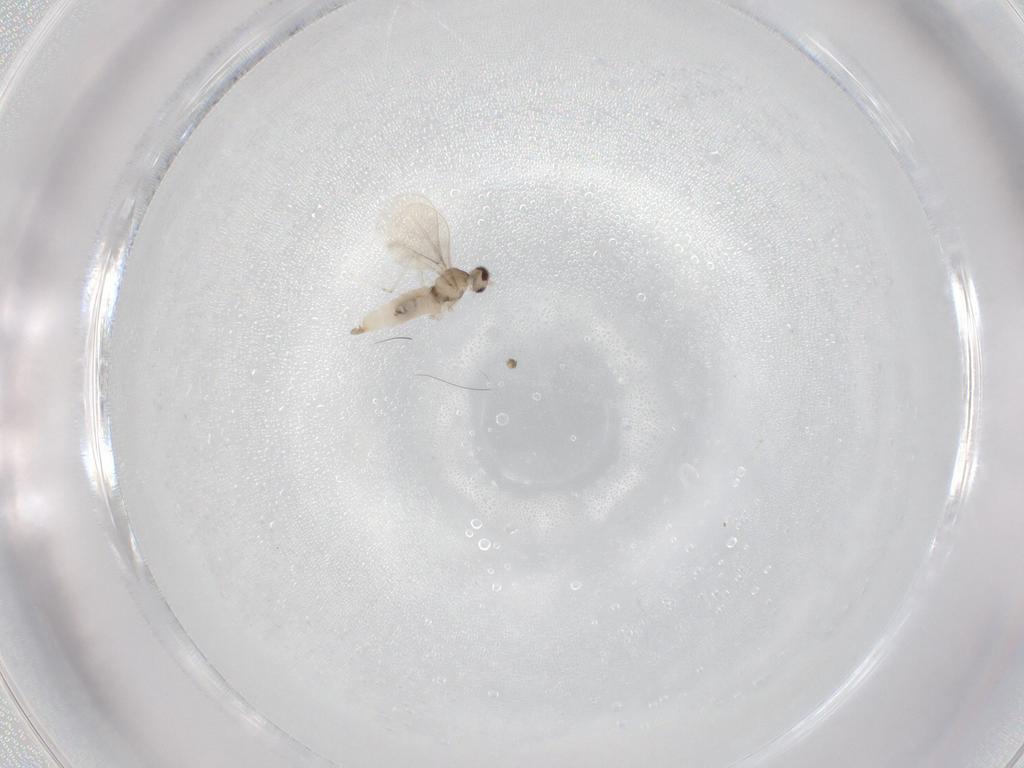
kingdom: Animalia
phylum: Arthropoda
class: Insecta
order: Diptera
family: Cecidomyiidae
